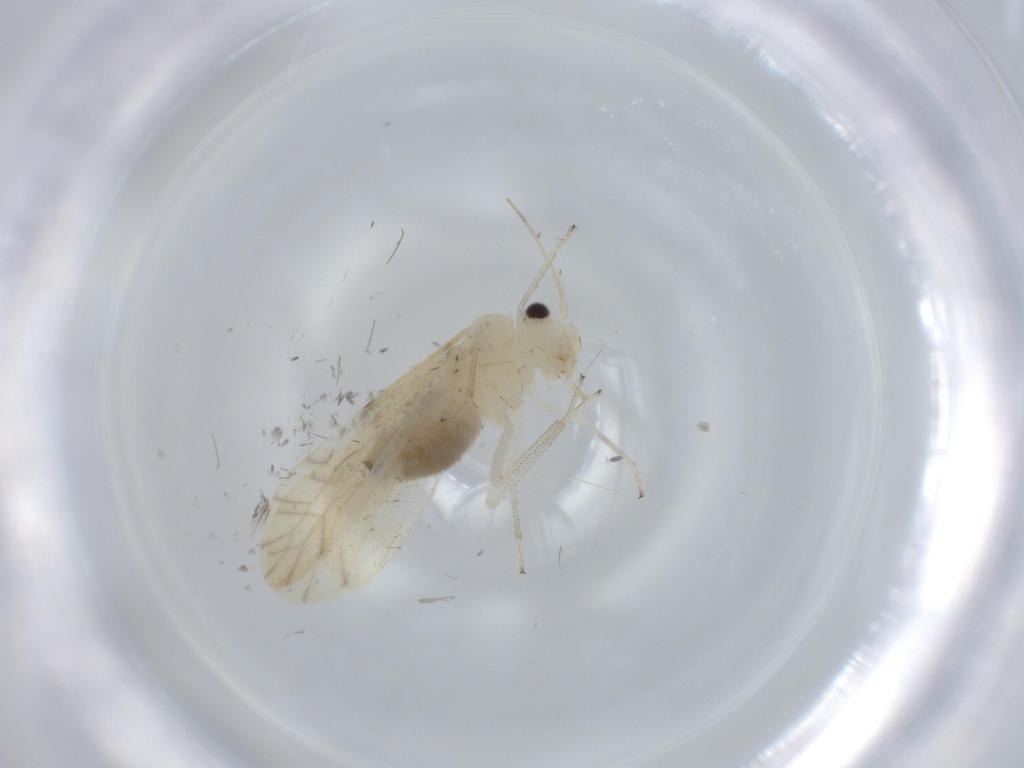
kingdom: Animalia
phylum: Arthropoda
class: Insecta
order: Psocodea
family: Caeciliusidae
